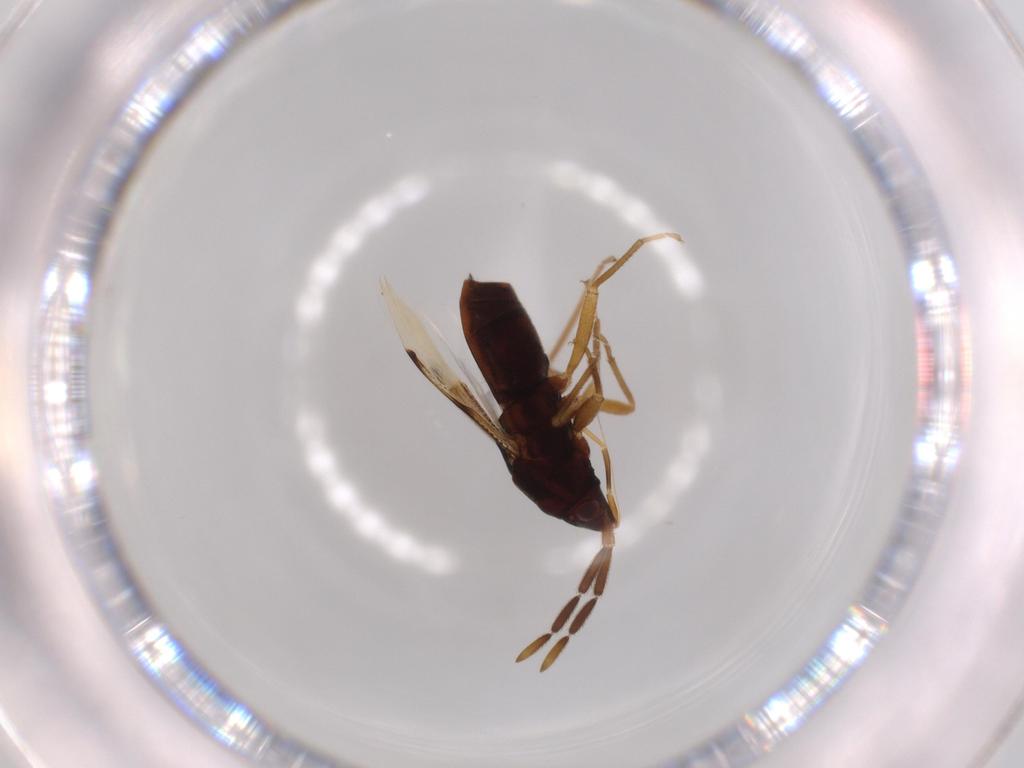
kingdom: Animalia
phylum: Arthropoda
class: Insecta
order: Hemiptera
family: Rhyparochromidae
